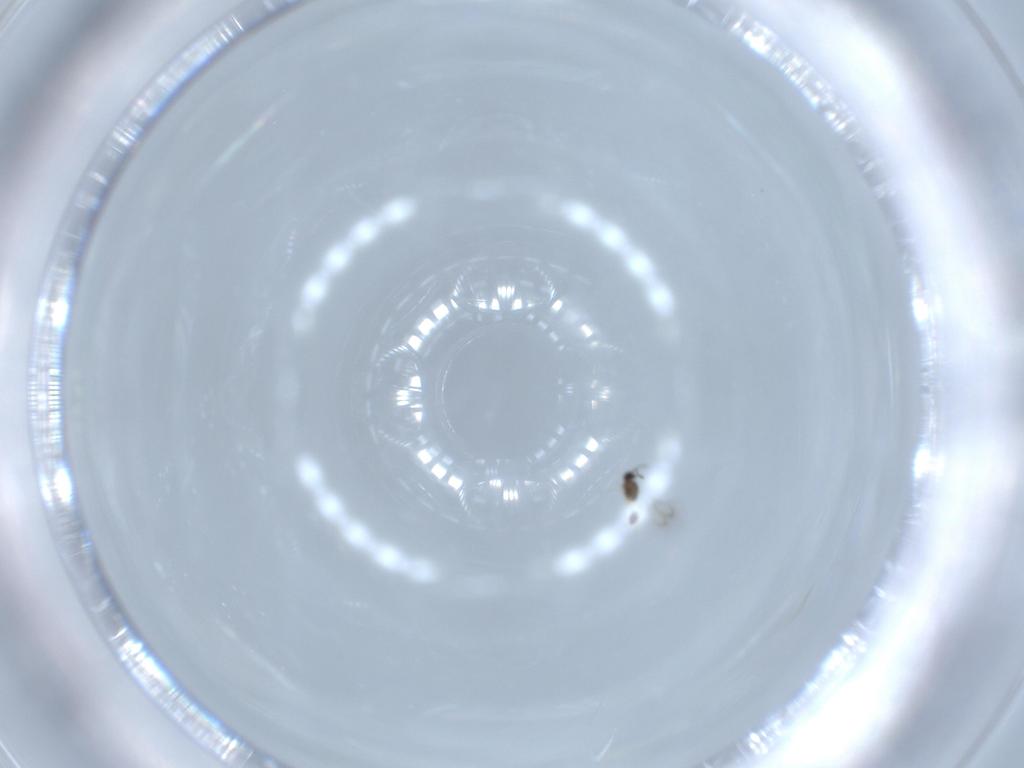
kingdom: Animalia
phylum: Arthropoda
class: Insecta
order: Hymenoptera
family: Mymarommatidae
